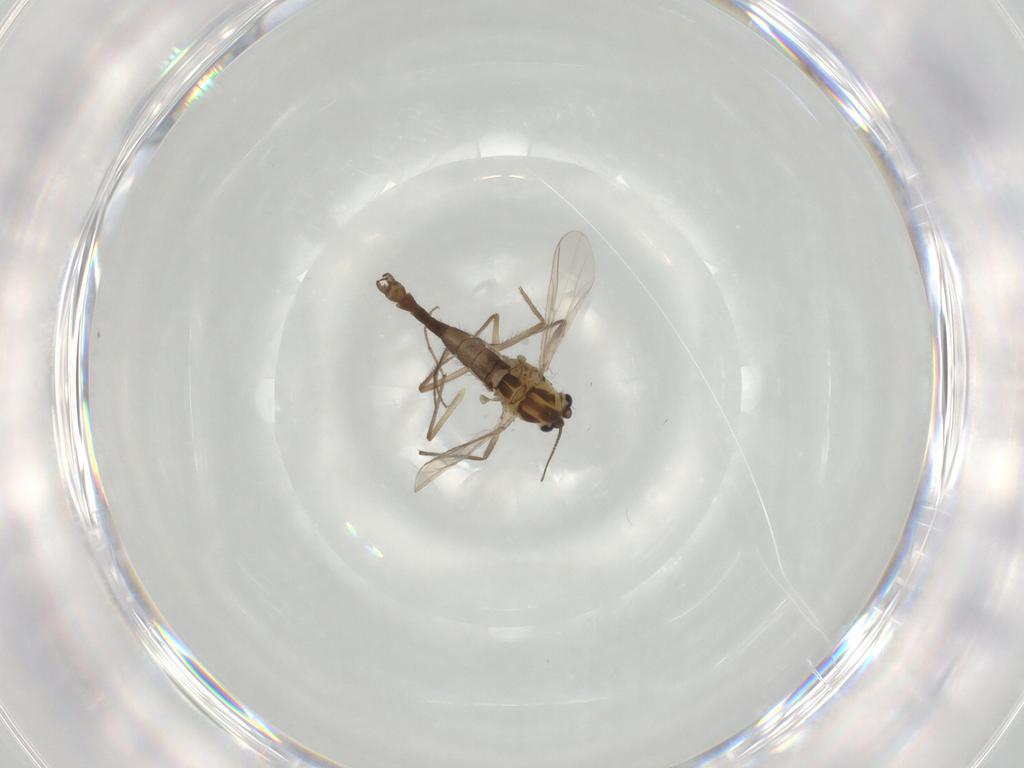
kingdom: Animalia
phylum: Arthropoda
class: Insecta
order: Diptera
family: Chironomidae
